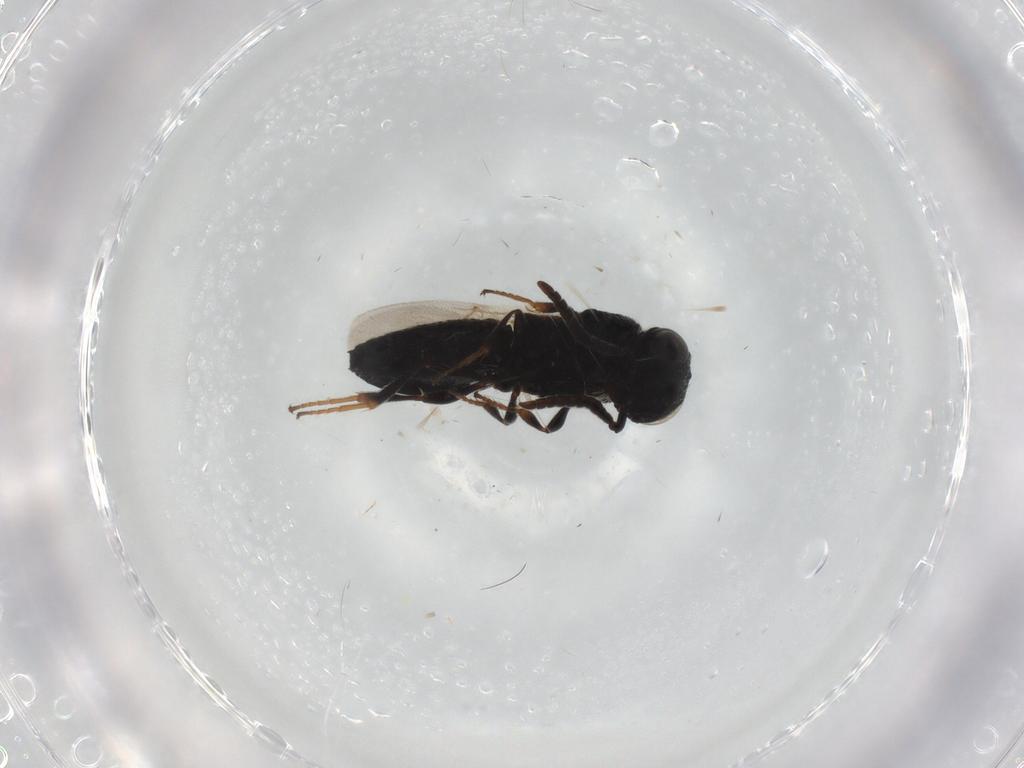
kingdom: Animalia
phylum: Arthropoda
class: Insecta
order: Hymenoptera
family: Scelionidae
